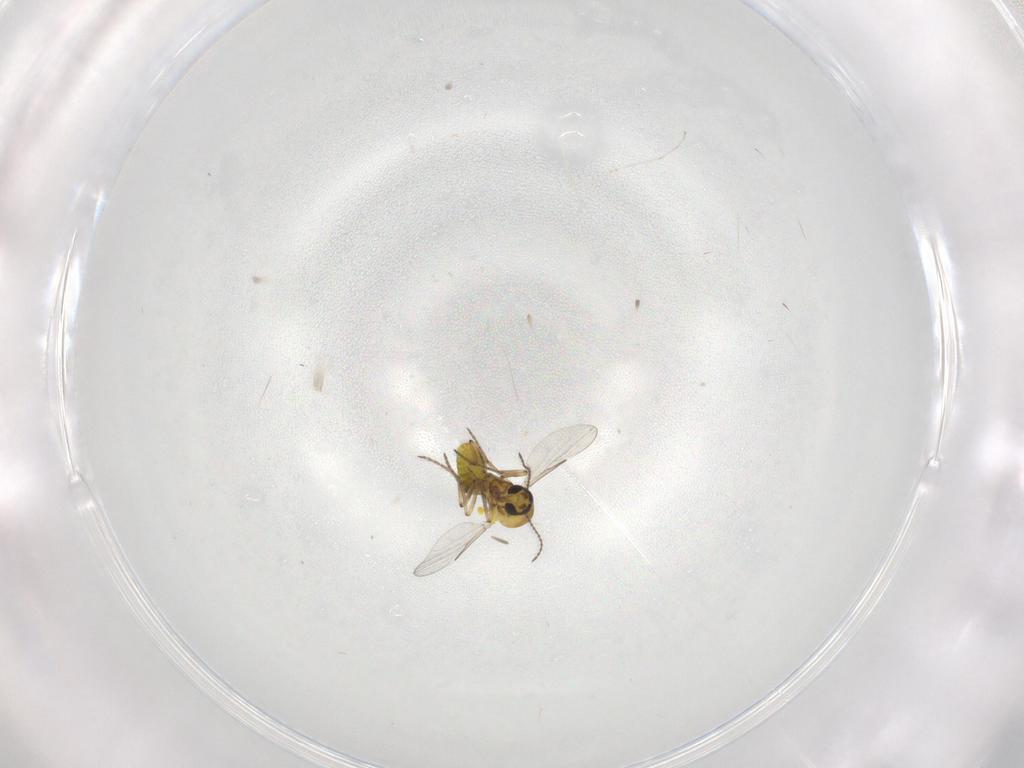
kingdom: Animalia
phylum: Arthropoda
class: Insecta
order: Diptera
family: Ceratopogonidae
